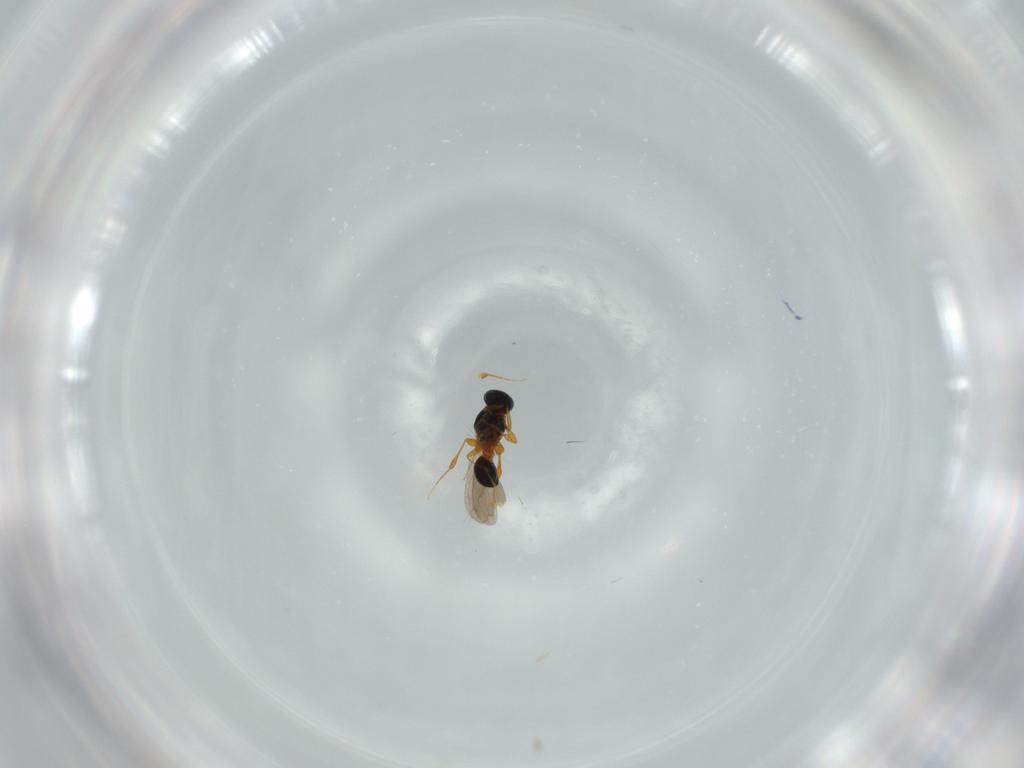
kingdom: Animalia
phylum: Arthropoda
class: Insecta
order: Hymenoptera
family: Platygastridae
